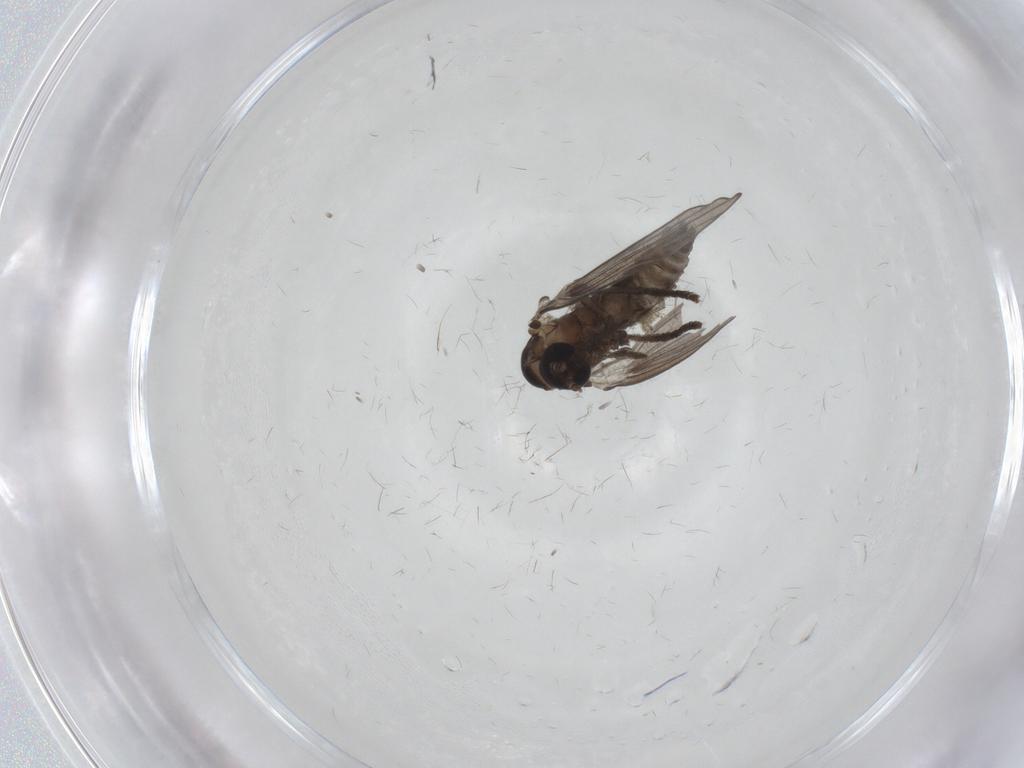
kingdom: Animalia
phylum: Arthropoda
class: Insecta
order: Diptera
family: Psychodidae
